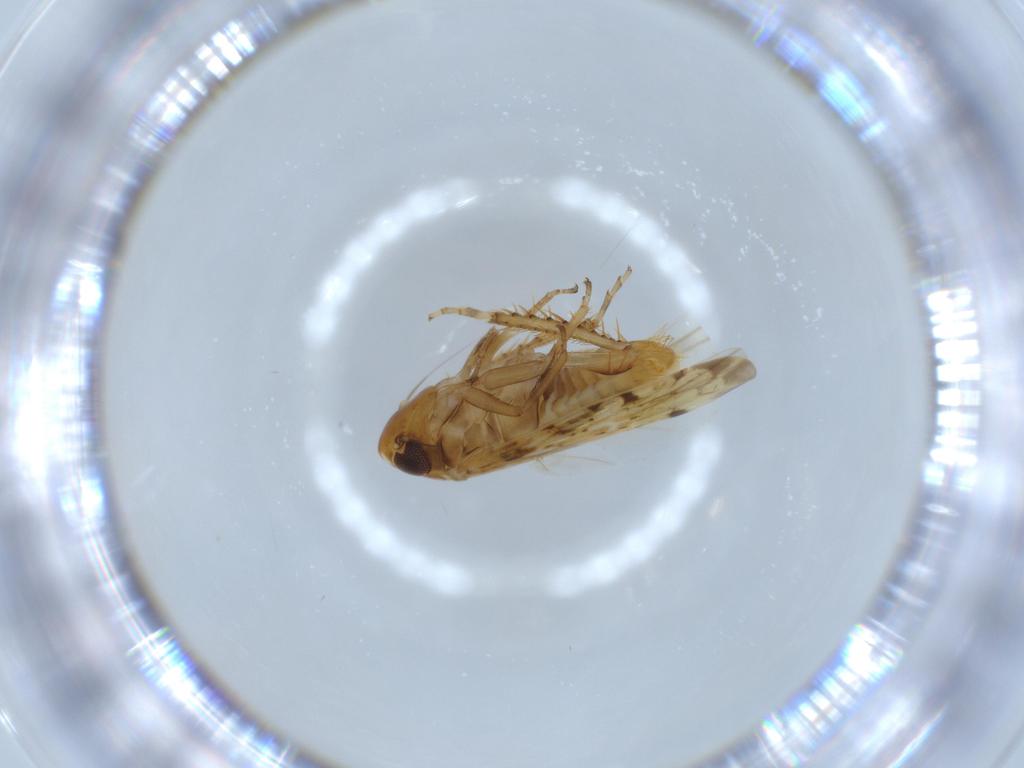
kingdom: Animalia
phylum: Arthropoda
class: Insecta
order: Hemiptera
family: Cicadellidae
